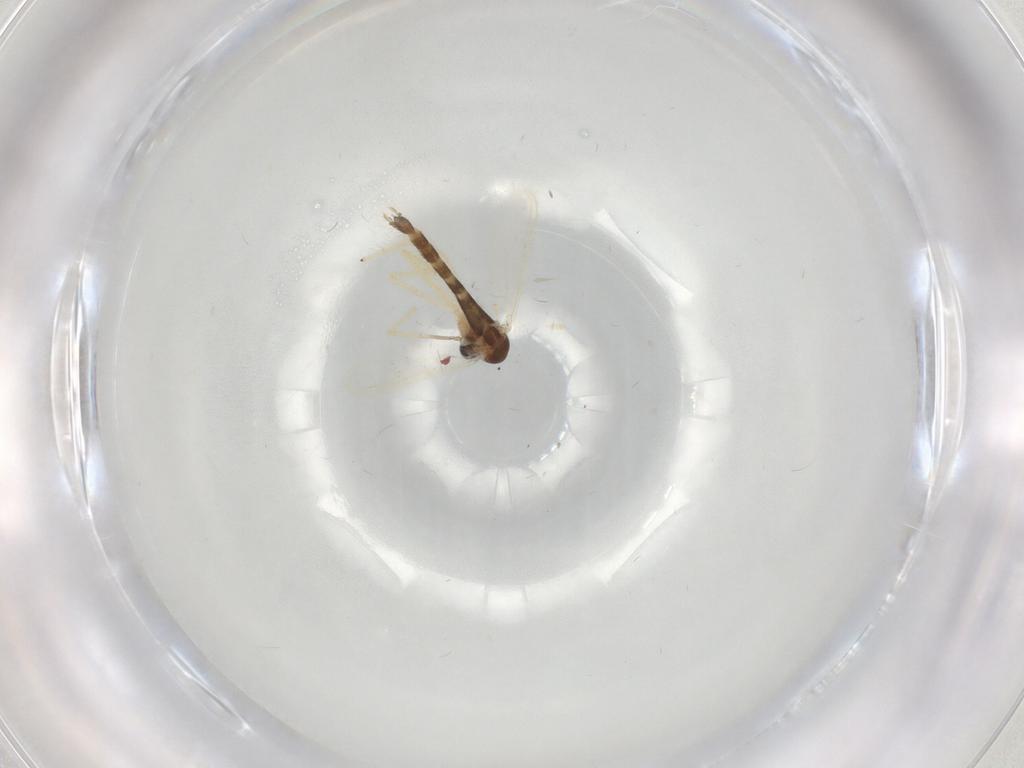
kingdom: Animalia
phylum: Arthropoda
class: Insecta
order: Diptera
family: Chironomidae
